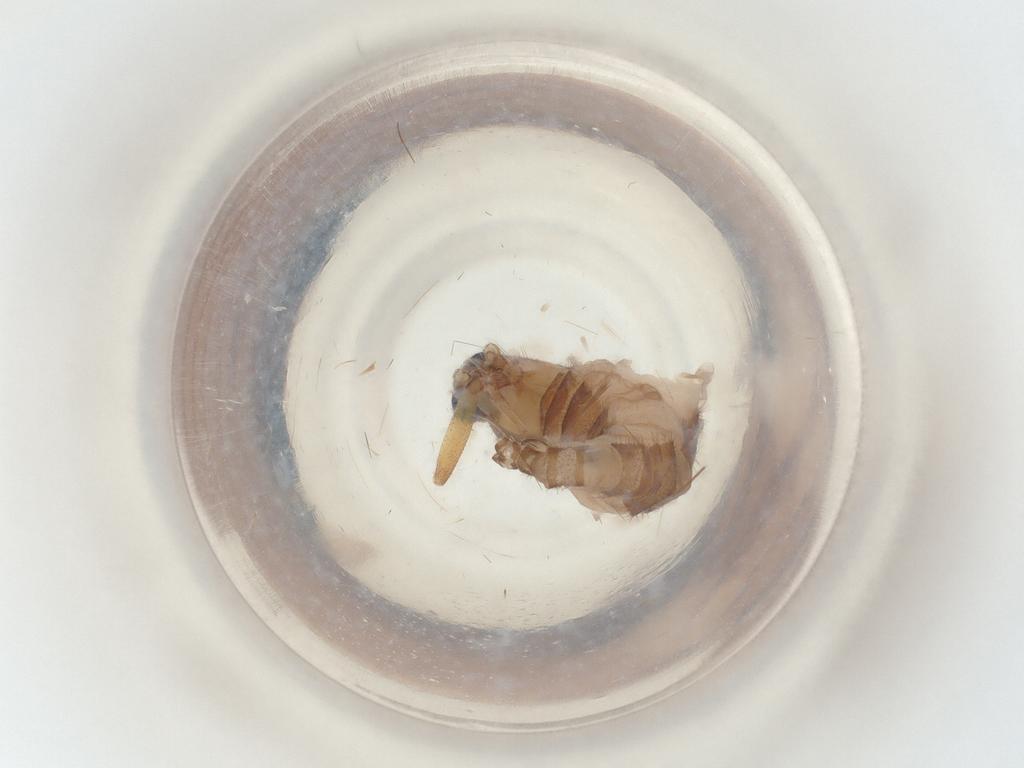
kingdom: Animalia
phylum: Arthropoda
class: Insecta
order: Diptera
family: Sciaridae
